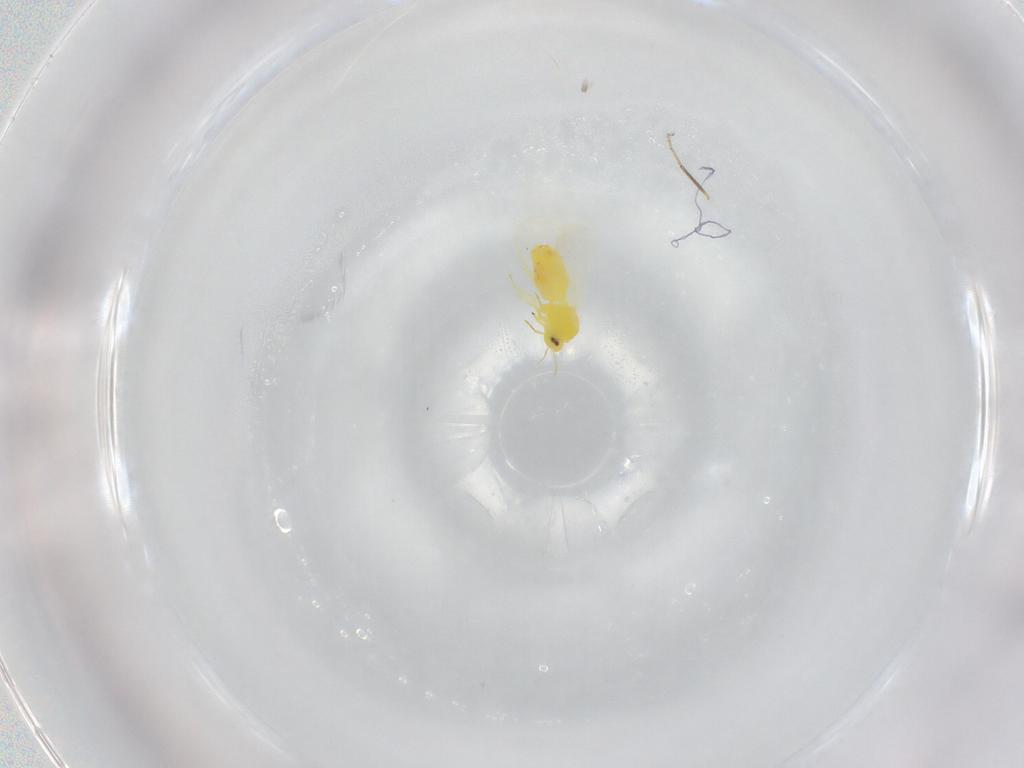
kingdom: Animalia
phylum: Arthropoda
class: Insecta
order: Hemiptera
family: Aleyrodidae
